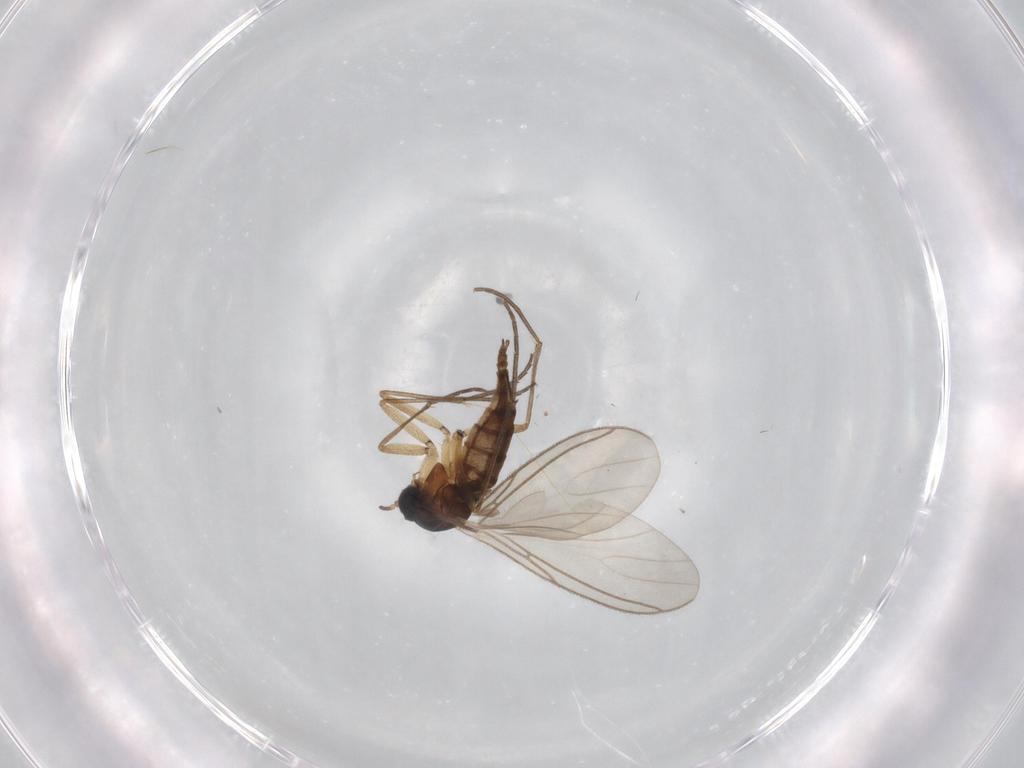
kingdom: Animalia
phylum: Arthropoda
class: Insecta
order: Diptera
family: Sciaridae
